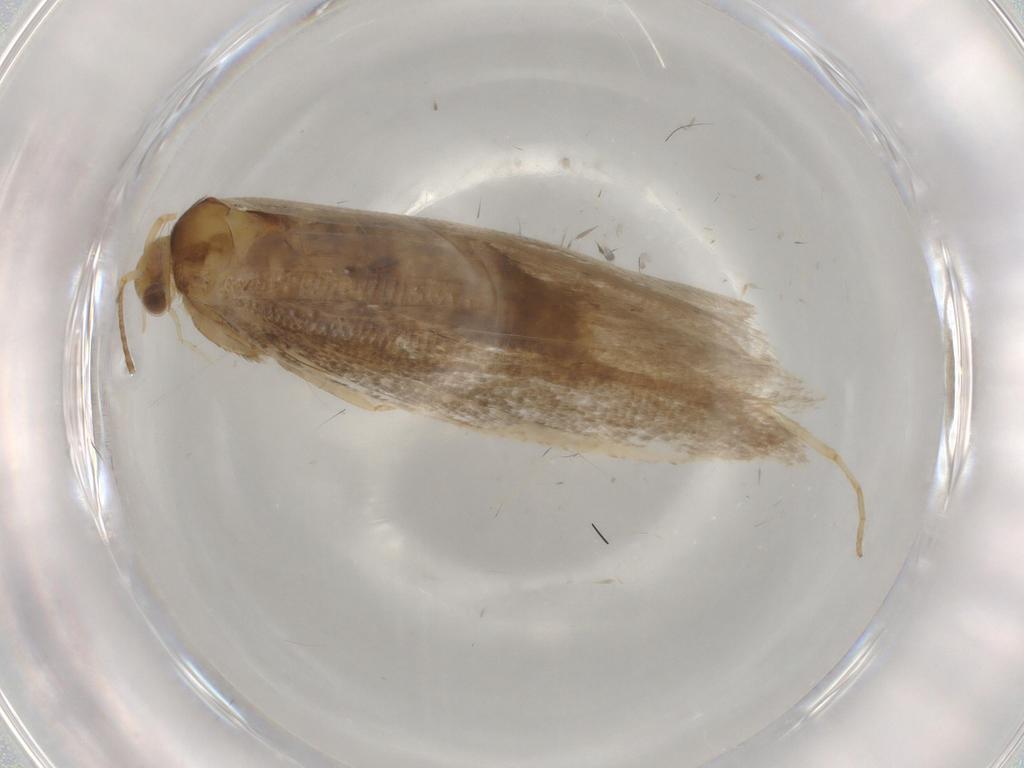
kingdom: Animalia
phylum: Arthropoda
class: Insecta
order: Lepidoptera
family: Argyresthiidae
